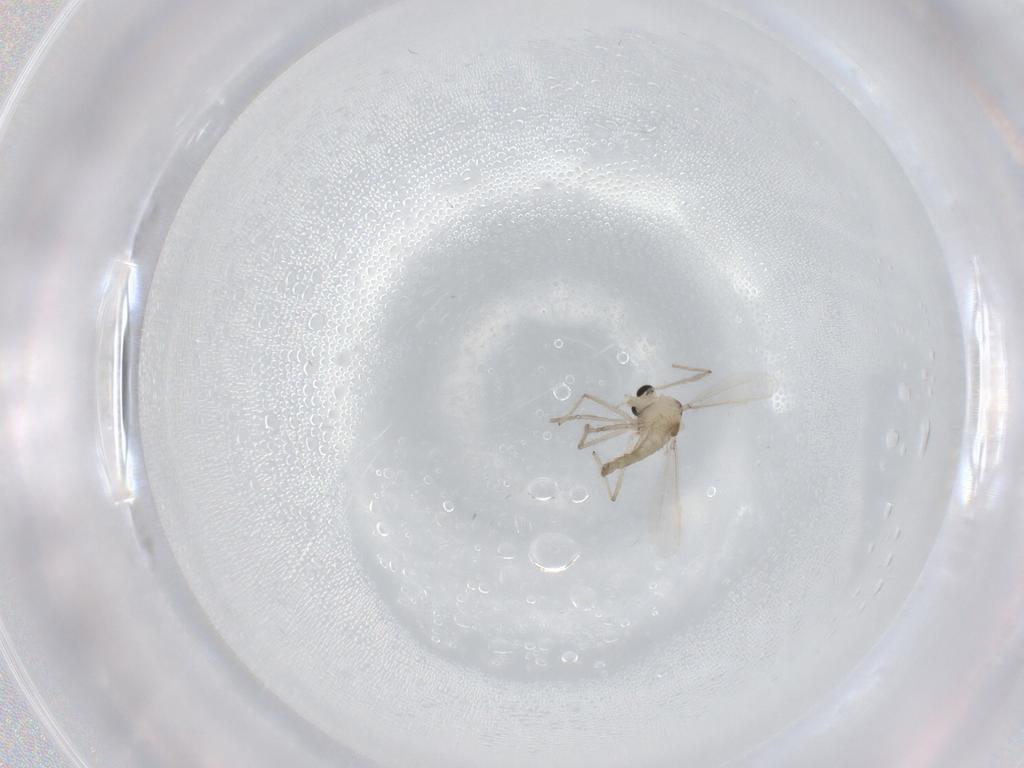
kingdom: Animalia
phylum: Arthropoda
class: Insecta
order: Diptera
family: Chironomidae
